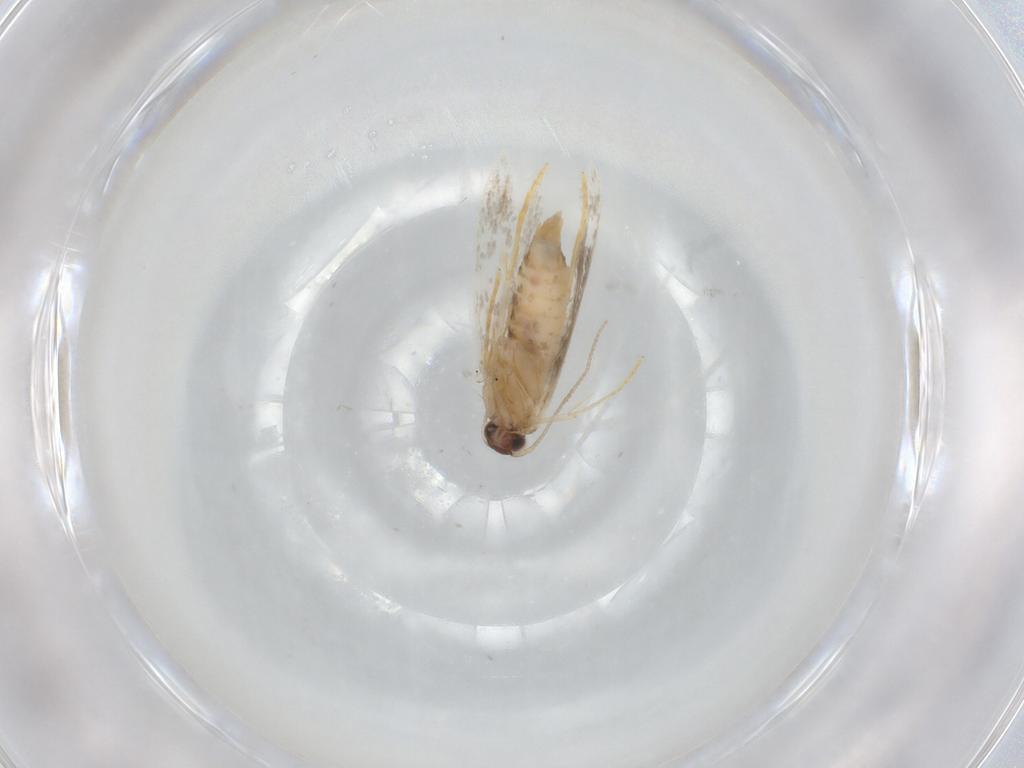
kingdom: Animalia
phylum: Arthropoda
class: Insecta
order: Lepidoptera
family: Tineidae
